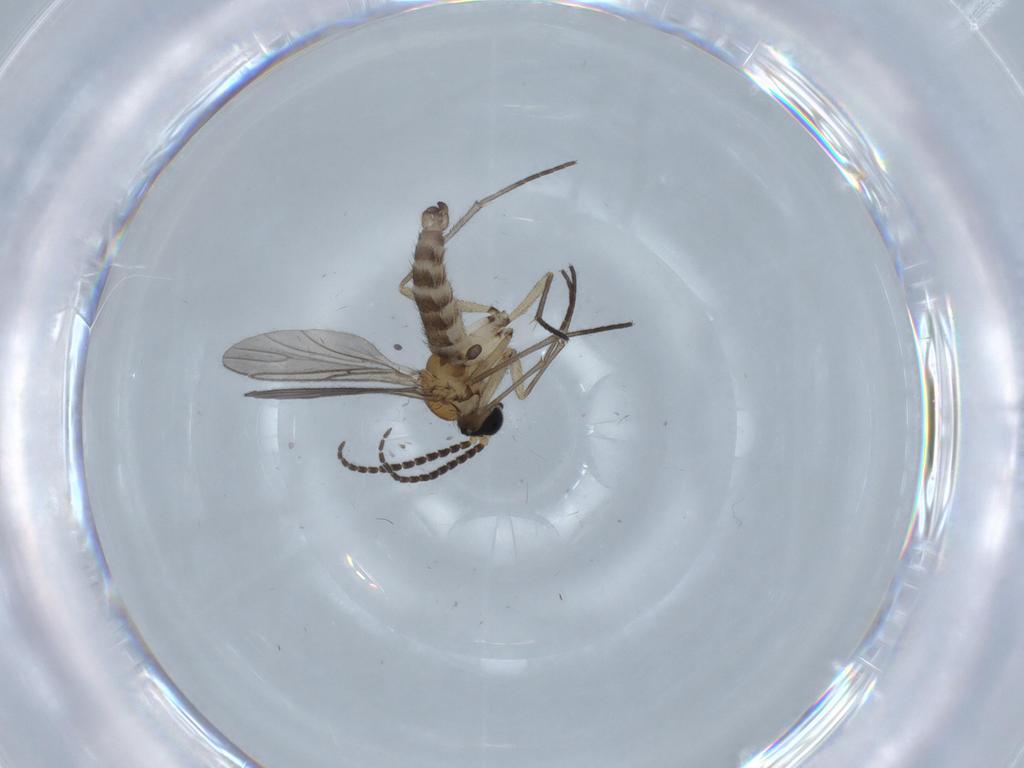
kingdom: Animalia
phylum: Arthropoda
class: Insecta
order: Diptera
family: Sciaridae
